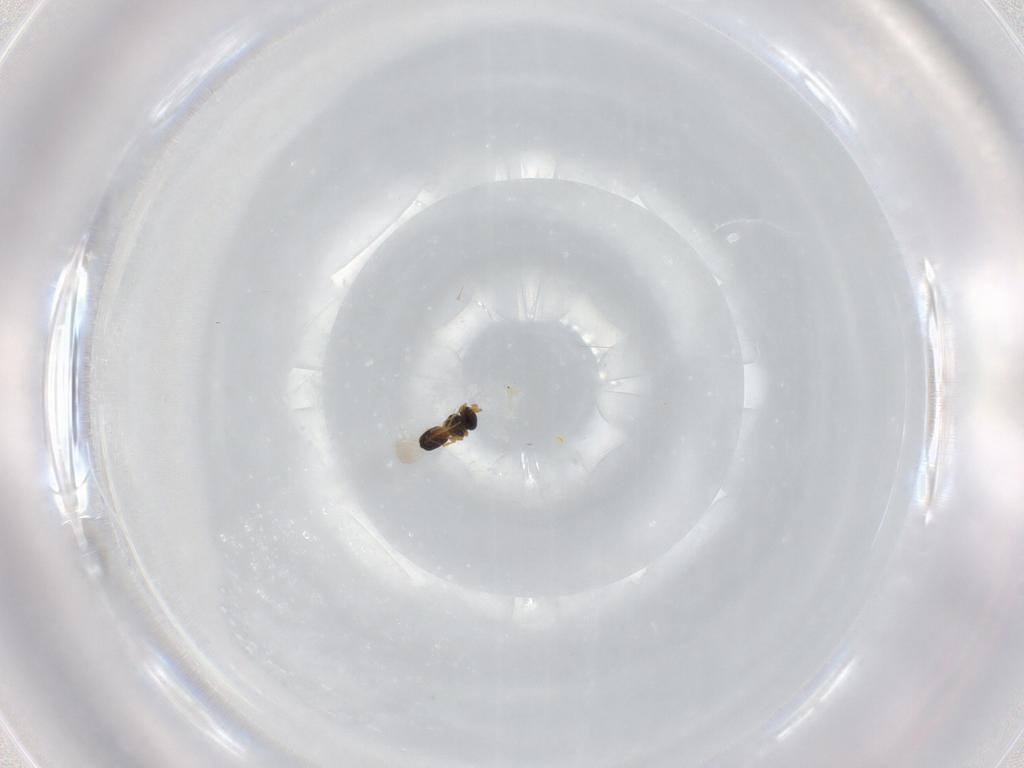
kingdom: Animalia
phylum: Arthropoda
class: Insecta
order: Hymenoptera
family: Platygastridae
